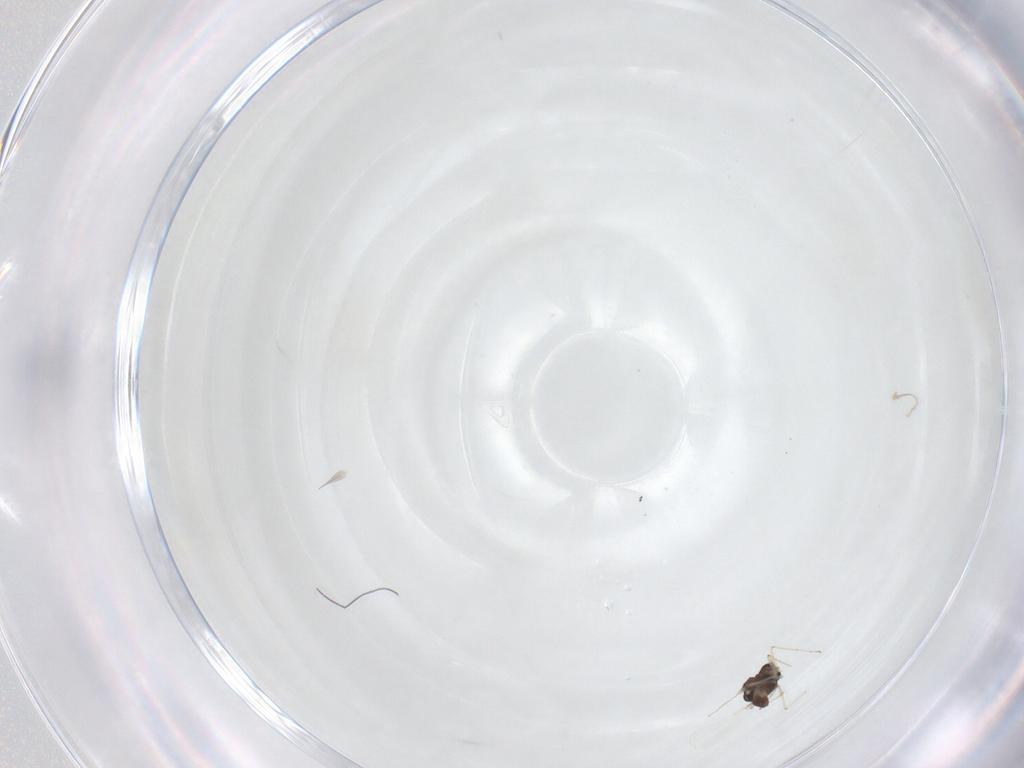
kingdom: Animalia
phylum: Arthropoda
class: Insecta
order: Diptera
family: Chironomidae
